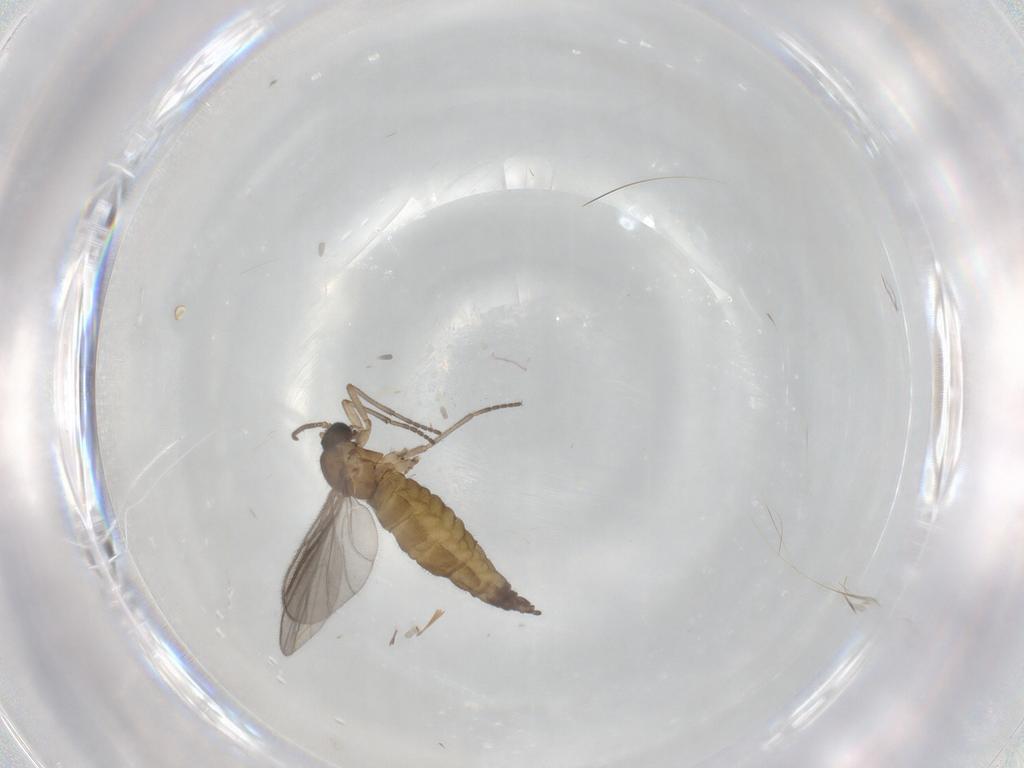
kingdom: Animalia
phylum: Arthropoda
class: Insecta
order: Diptera
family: Sciaridae
